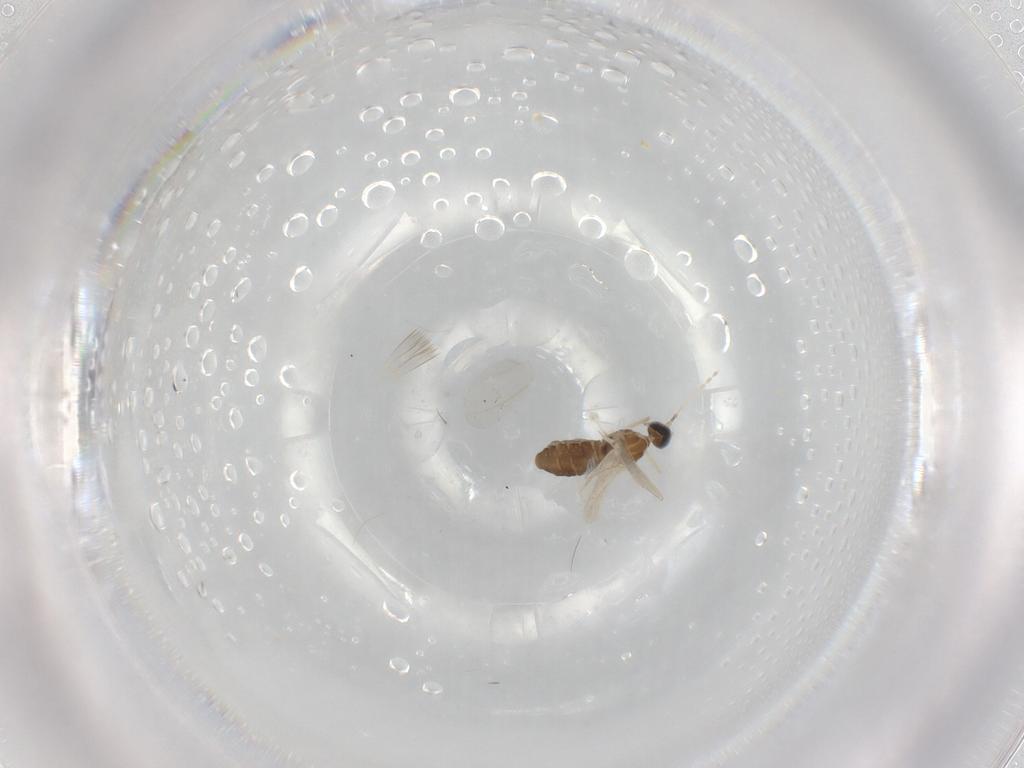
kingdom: Animalia
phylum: Arthropoda
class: Insecta
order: Diptera
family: Cecidomyiidae
